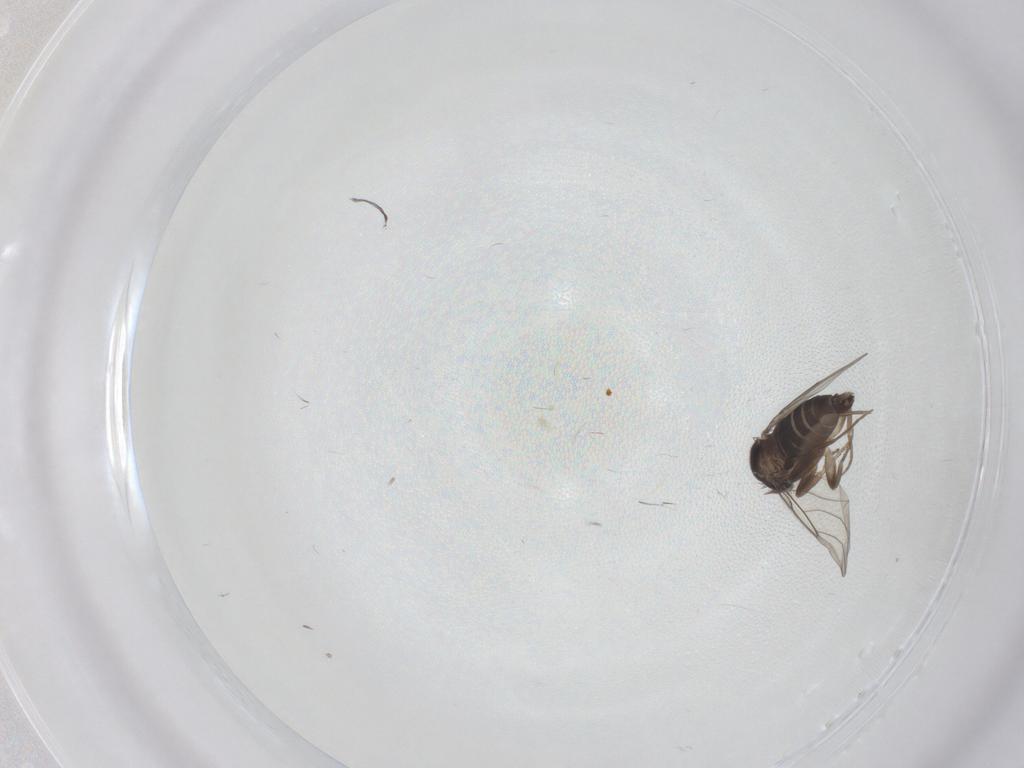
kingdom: Animalia
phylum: Arthropoda
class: Insecta
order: Diptera
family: Phoridae
